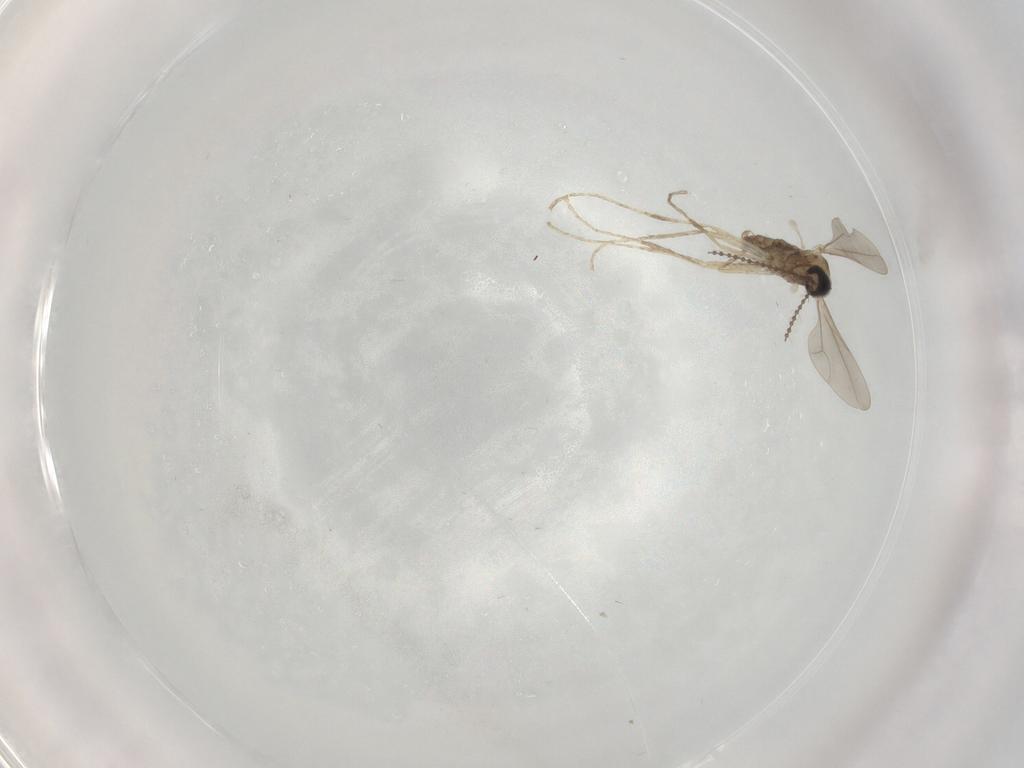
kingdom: Animalia
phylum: Arthropoda
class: Insecta
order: Diptera
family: Cecidomyiidae
